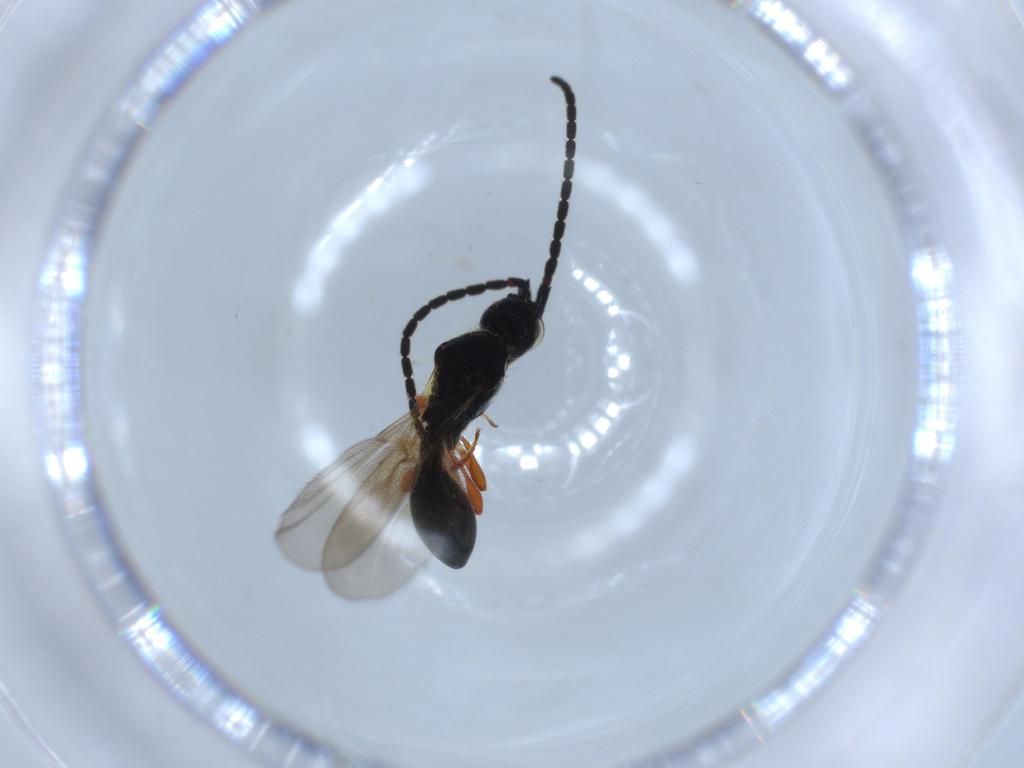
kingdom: Animalia
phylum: Arthropoda
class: Insecta
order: Hymenoptera
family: Diapriidae
